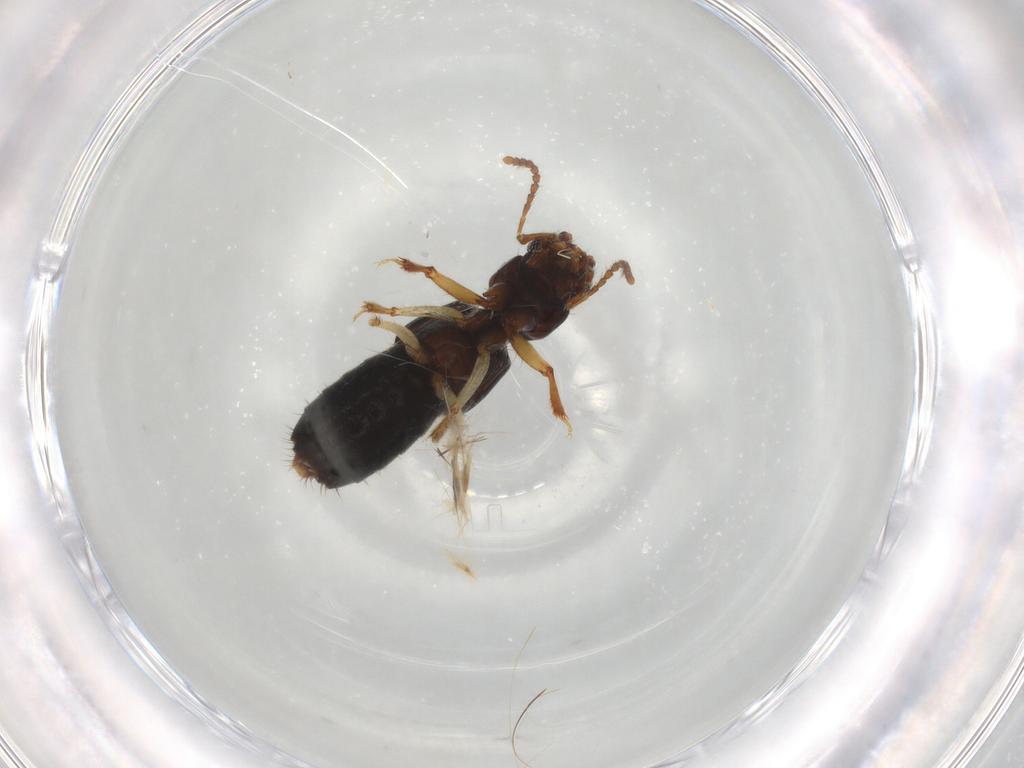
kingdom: Animalia
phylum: Arthropoda
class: Insecta
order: Coleoptera
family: Staphylinidae
